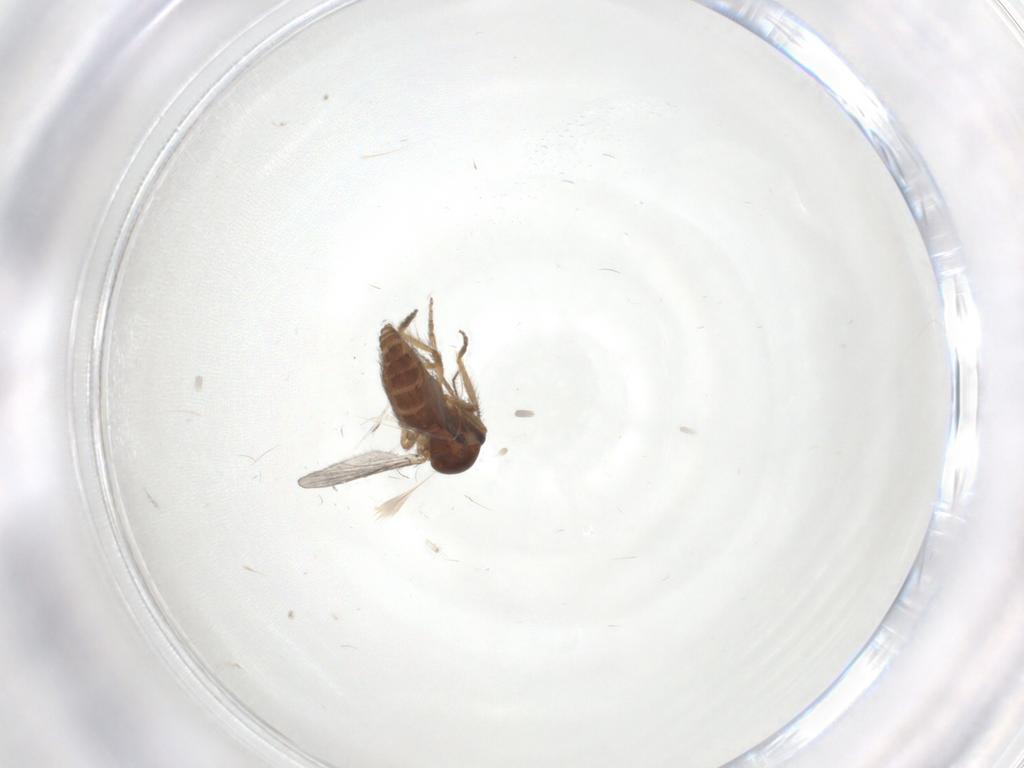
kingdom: Animalia
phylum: Arthropoda
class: Insecta
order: Diptera
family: Ceratopogonidae
